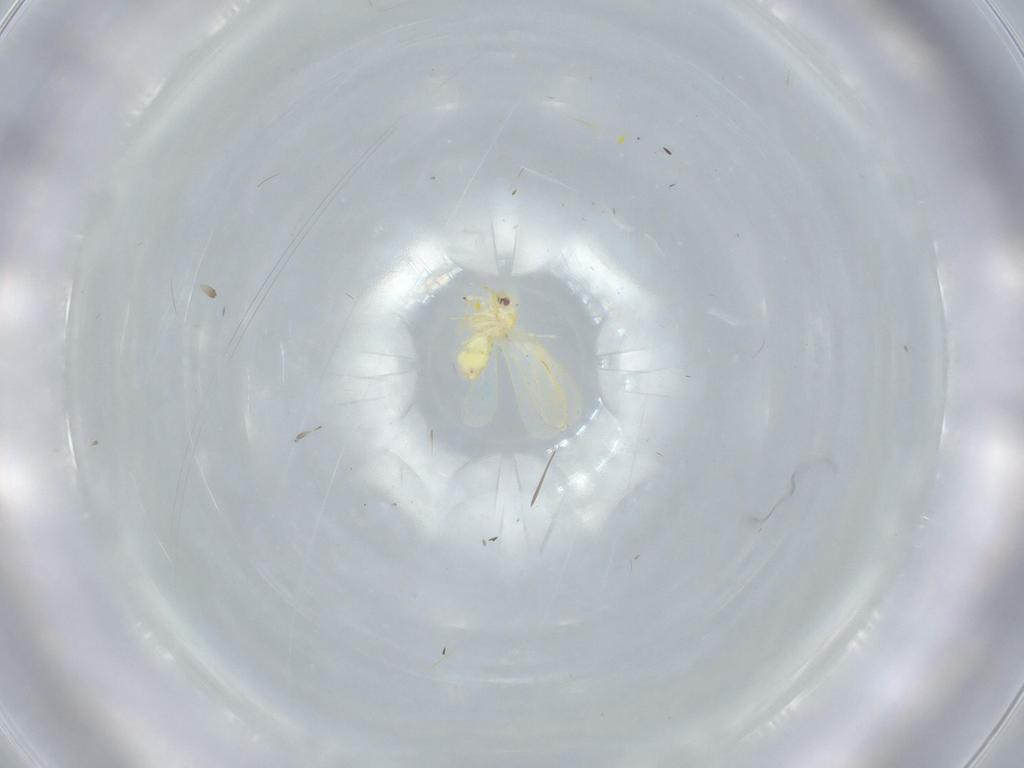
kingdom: Animalia
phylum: Arthropoda
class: Insecta
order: Hemiptera
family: Aleyrodidae
